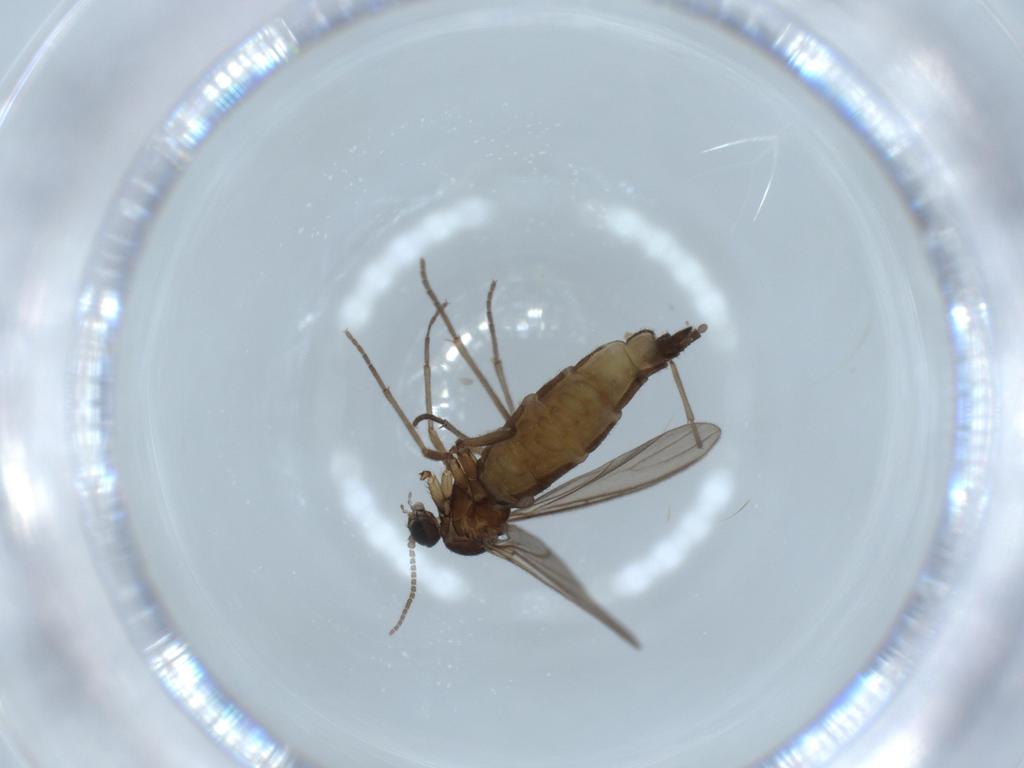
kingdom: Animalia
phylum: Arthropoda
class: Insecta
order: Diptera
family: Sciaridae
